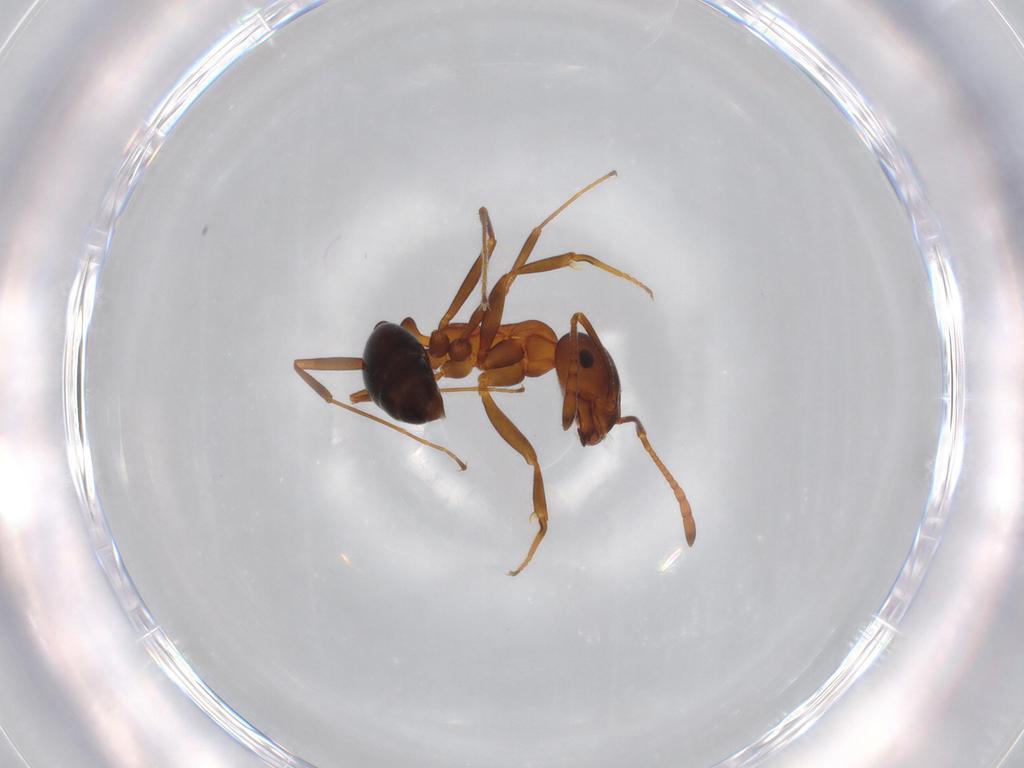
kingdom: Animalia
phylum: Arthropoda
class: Insecta
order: Hymenoptera
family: Formicidae
